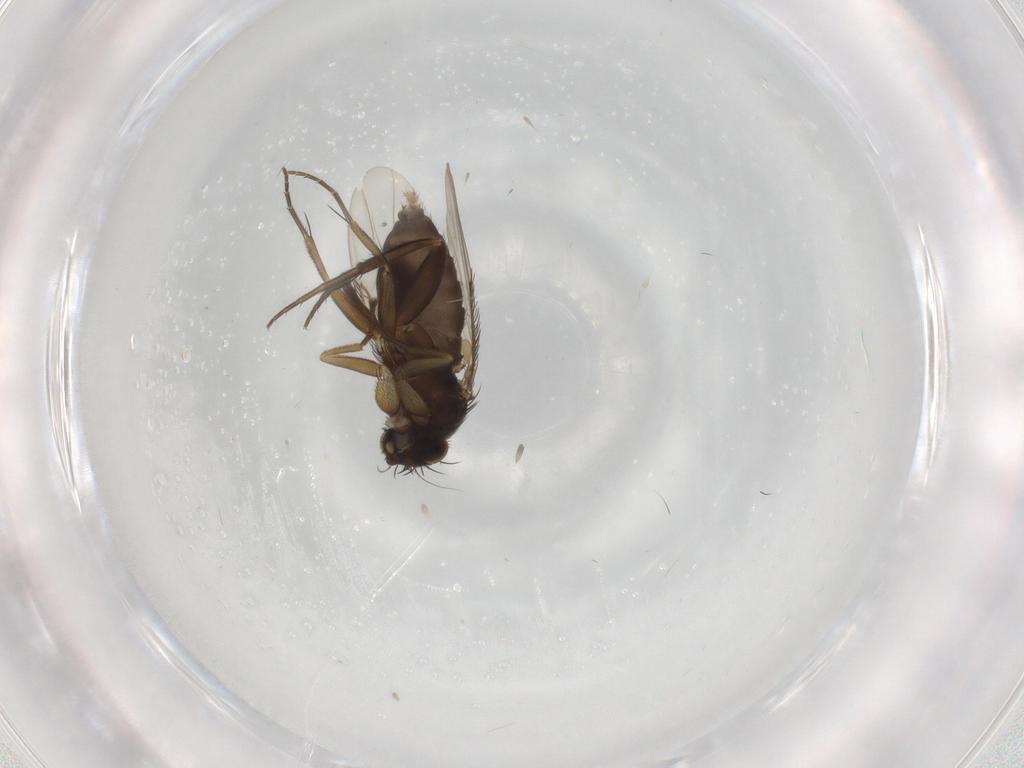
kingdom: Animalia
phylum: Arthropoda
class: Insecta
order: Diptera
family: Phoridae
